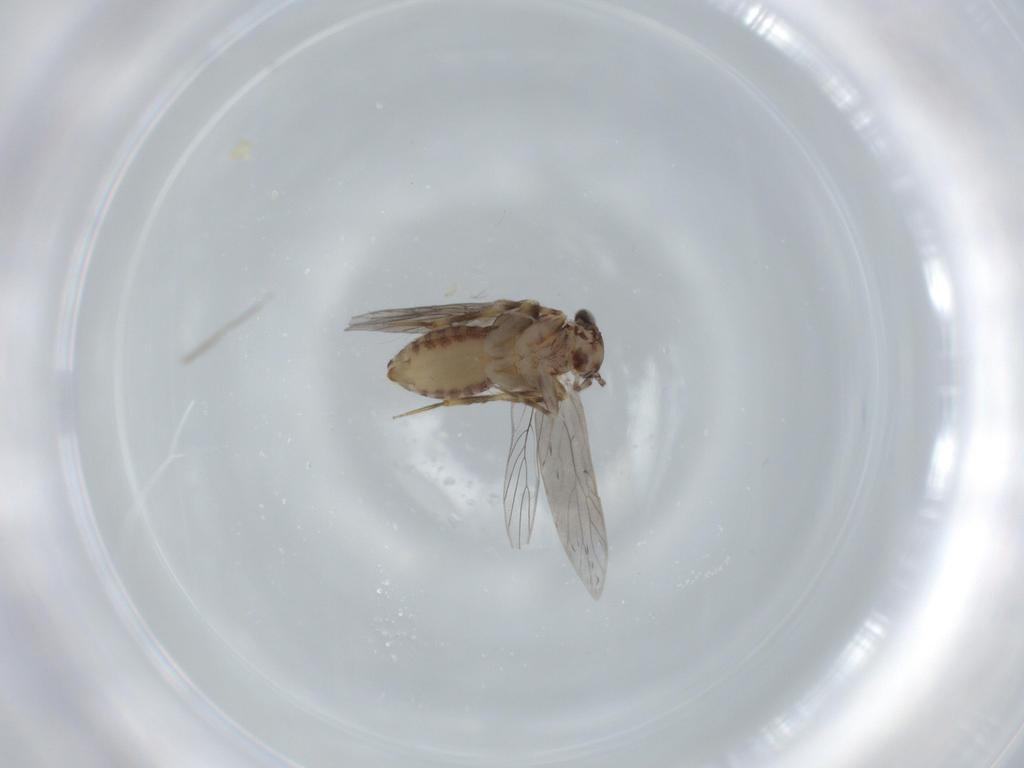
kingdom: Animalia
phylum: Arthropoda
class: Insecta
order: Psocodea
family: Lepidopsocidae
